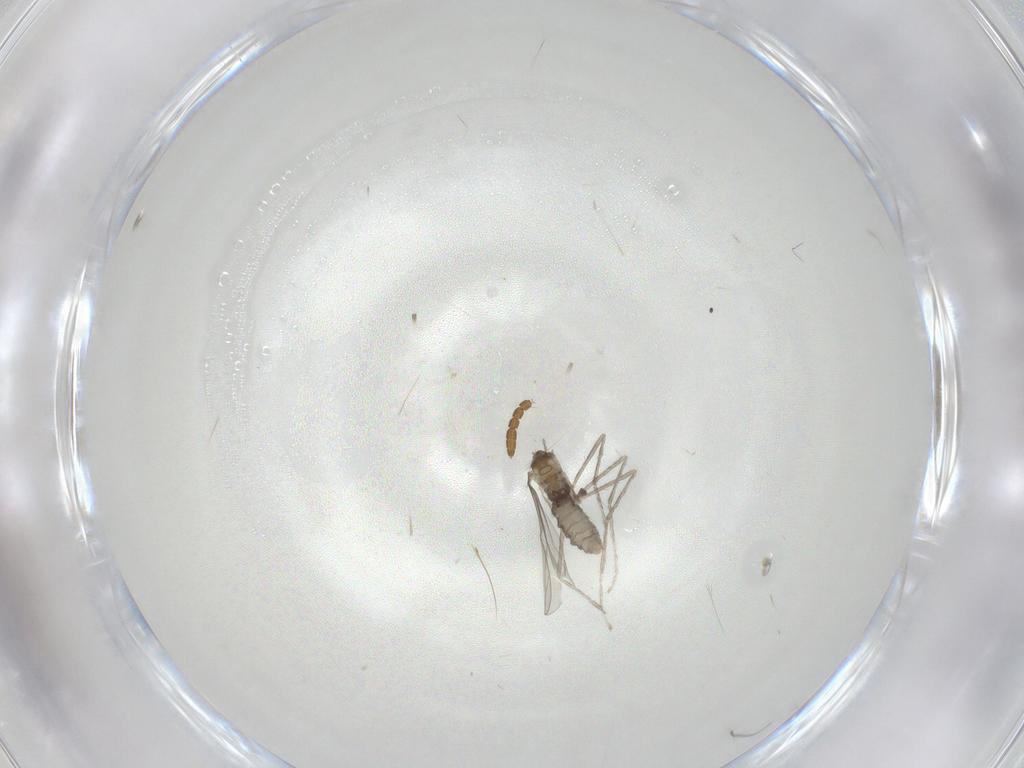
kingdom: Animalia
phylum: Arthropoda
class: Insecta
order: Diptera
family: Cecidomyiidae
